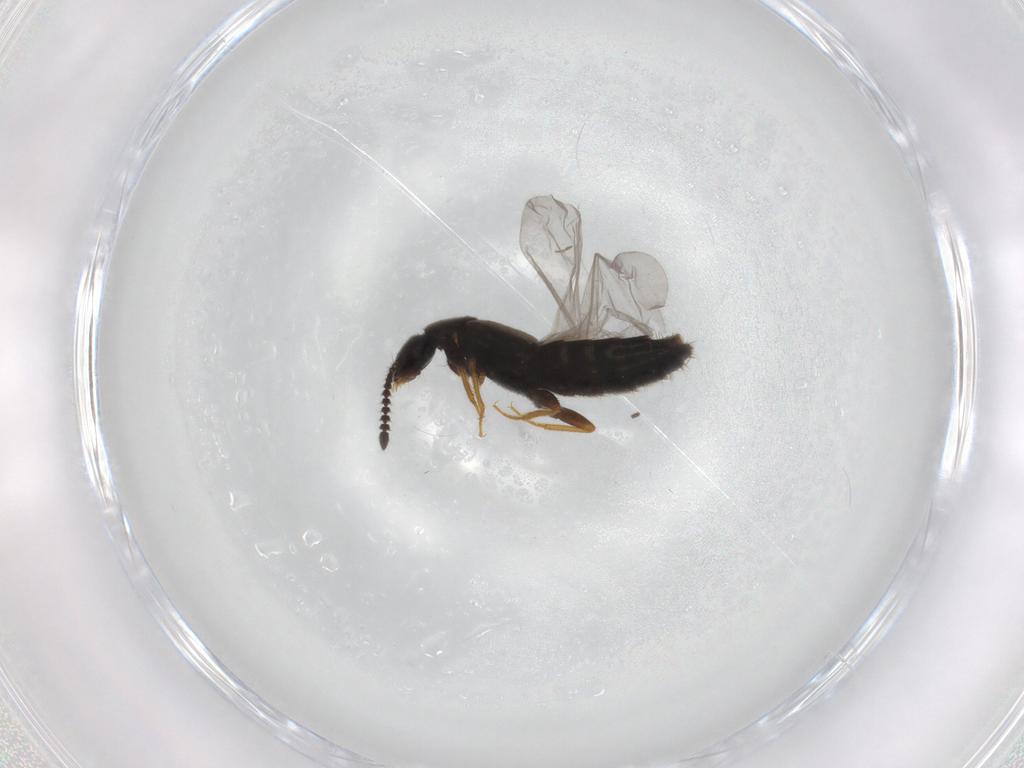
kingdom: Animalia
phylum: Arthropoda
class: Insecta
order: Coleoptera
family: Staphylinidae
